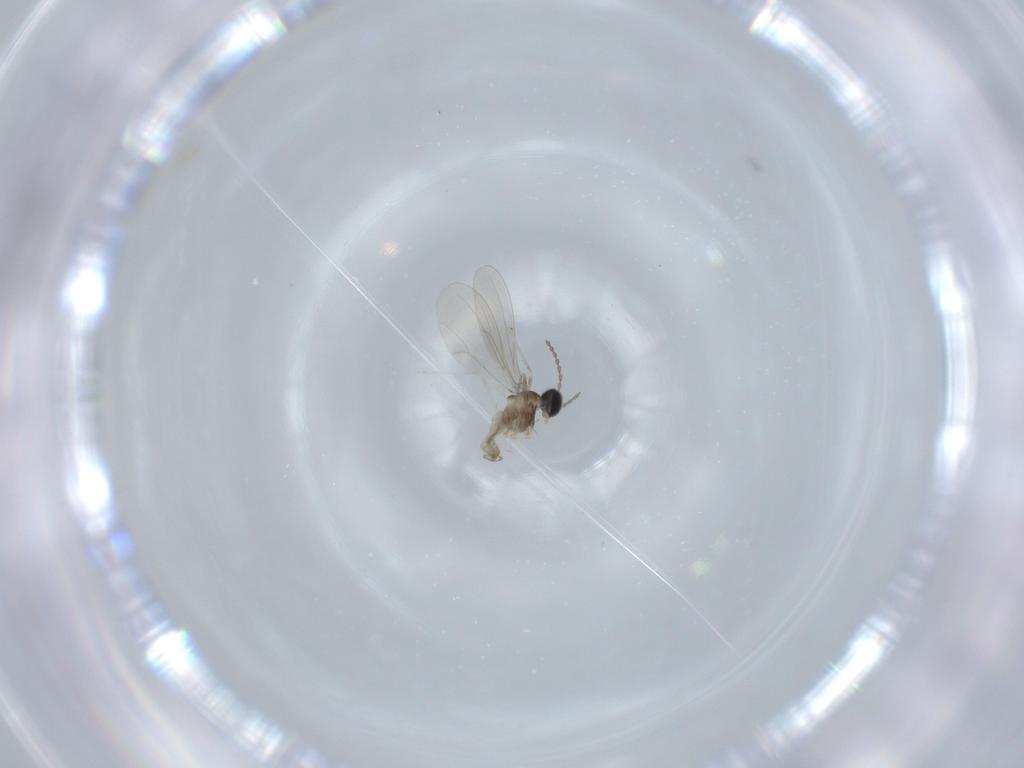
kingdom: Animalia
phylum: Arthropoda
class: Insecta
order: Diptera
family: Cecidomyiidae
